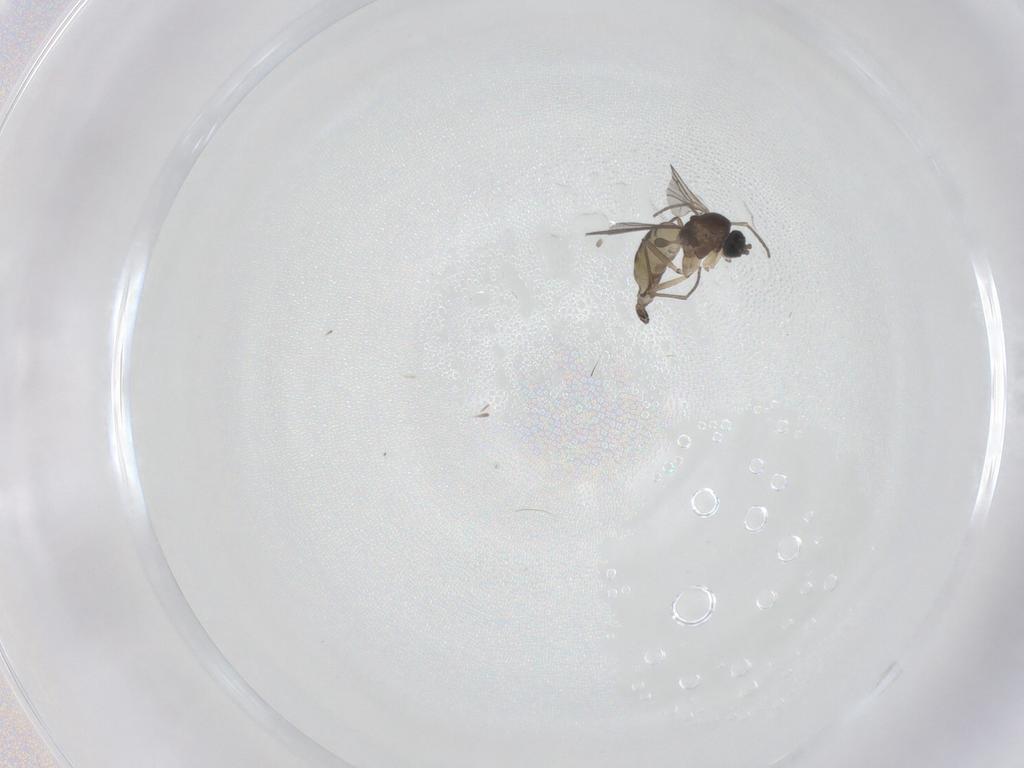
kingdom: Animalia
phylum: Arthropoda
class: Insecta
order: Diptera
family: Sciaridae
